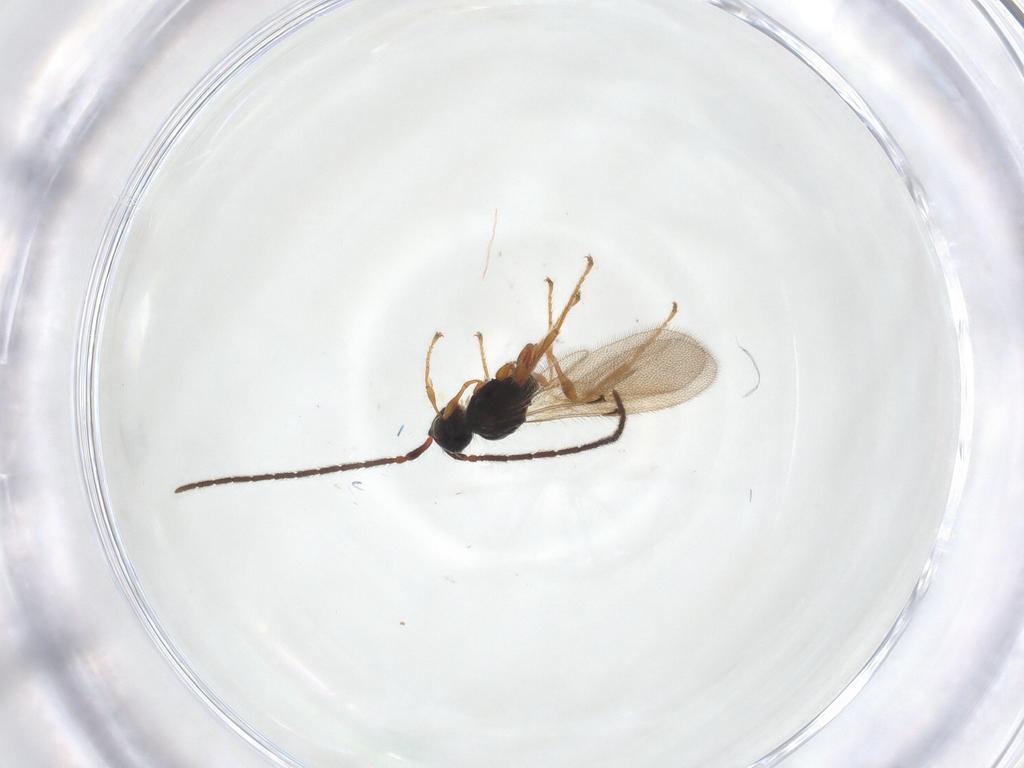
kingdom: Animalia
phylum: Arthropoda
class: Insecta
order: Hymenoptera
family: Diapriidae
